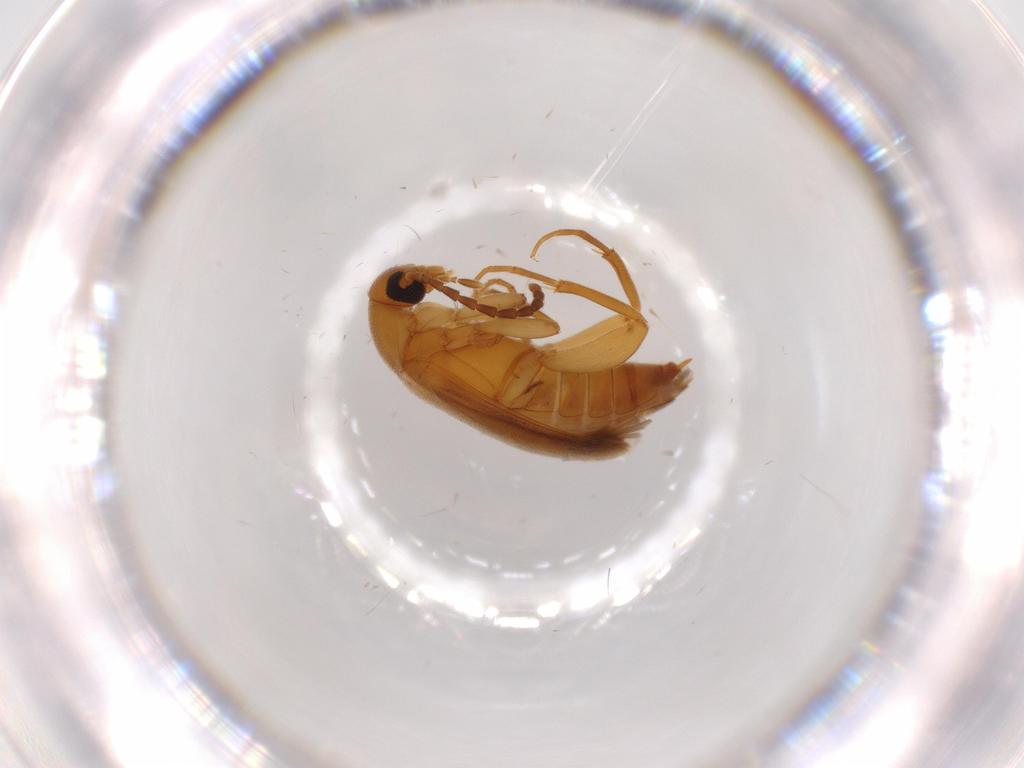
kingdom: Animalia
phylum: Arthropoda
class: Insecta
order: Coleoptera
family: Scraptiidae
